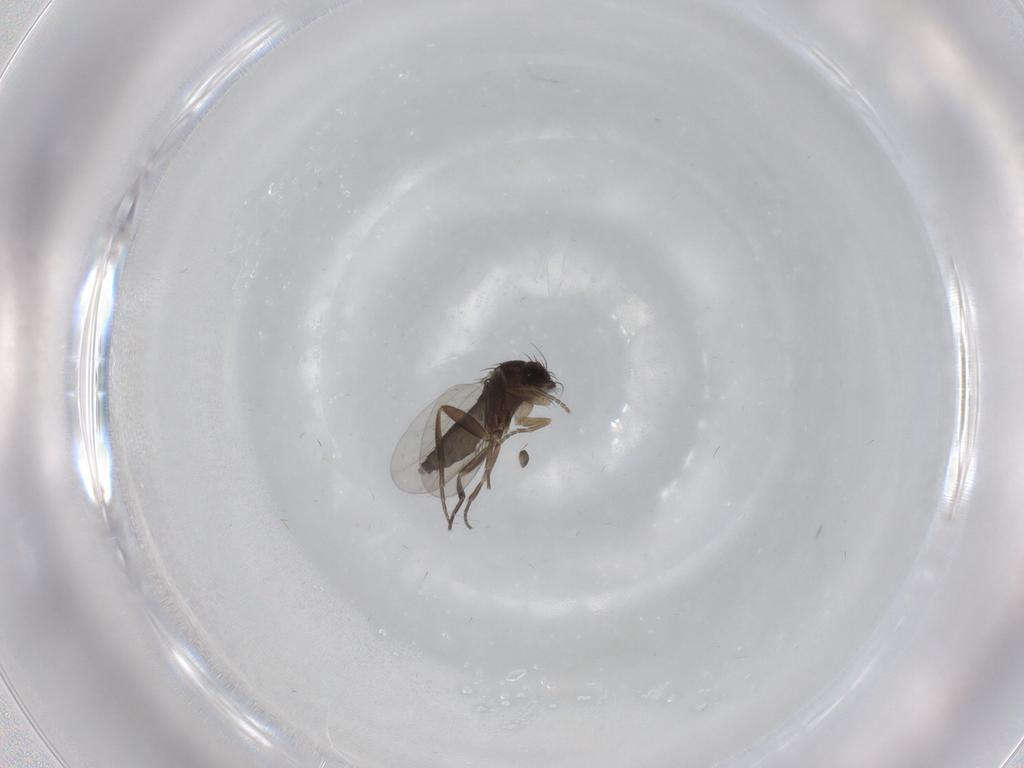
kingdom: Animalia
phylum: Arthropoda
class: Insecta
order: Diptera
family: Phoridae
